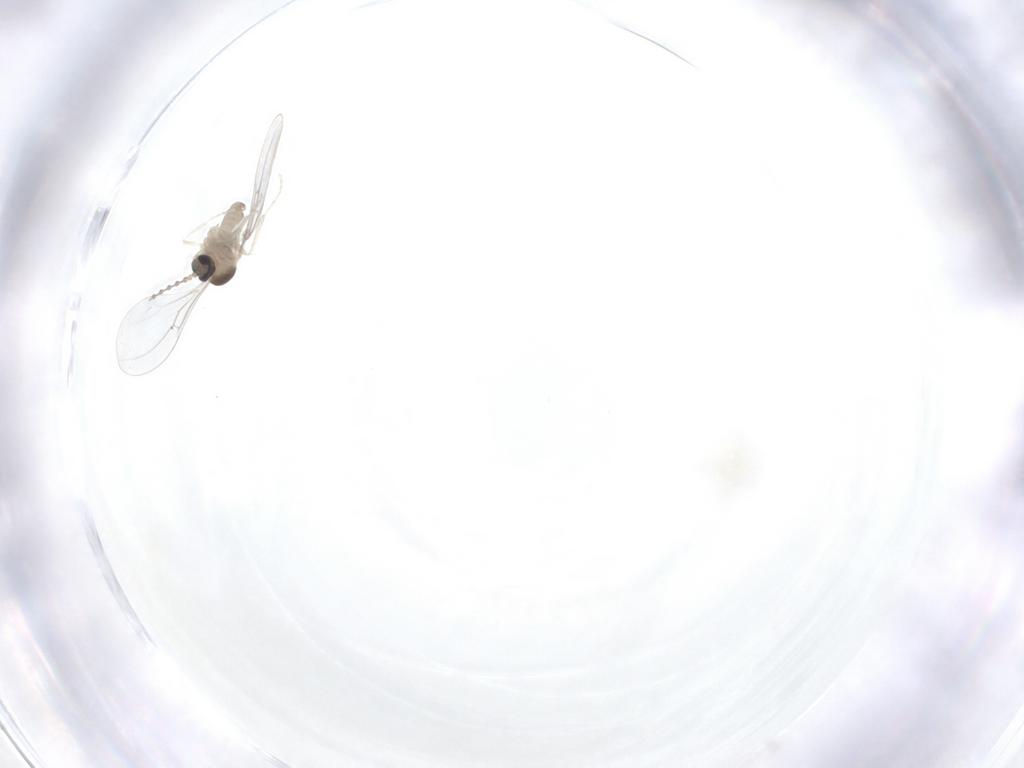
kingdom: Animalia
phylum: Arthropoda
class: Insecta
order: Diptera
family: Cecidomyiidae
